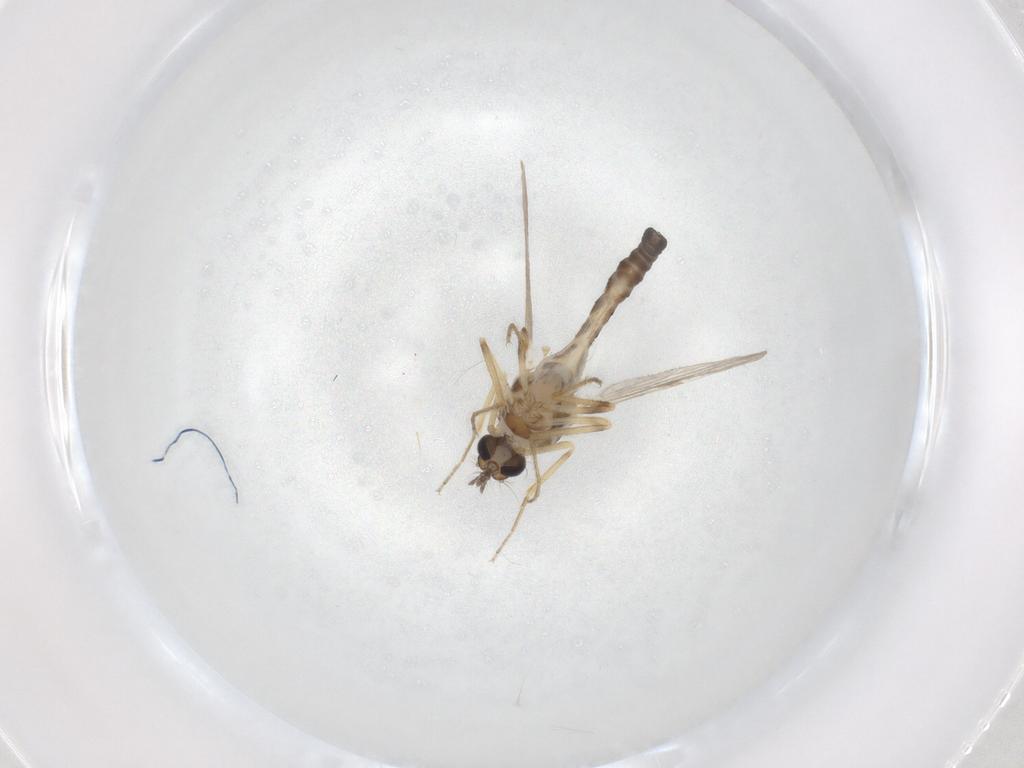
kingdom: Animalia
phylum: Arthropoda
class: Insecta
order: Diptera
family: Ceratopogonidae
